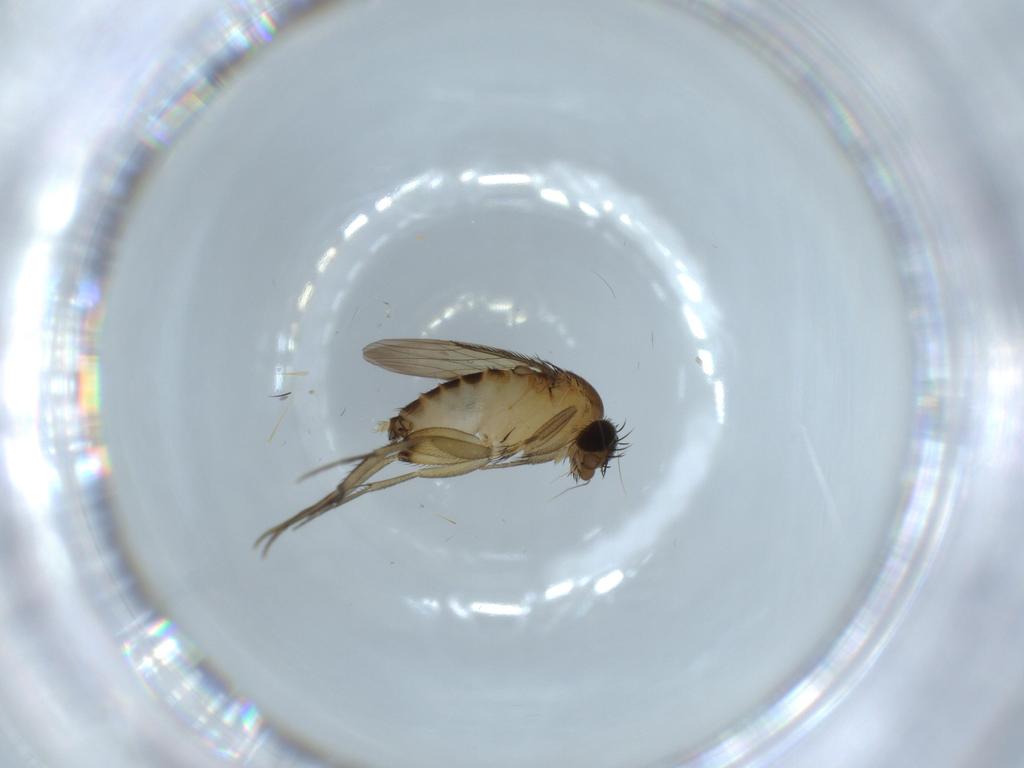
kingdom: Animalia
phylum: Arthropoda
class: Insecta
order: Diptera
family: Phoridae
